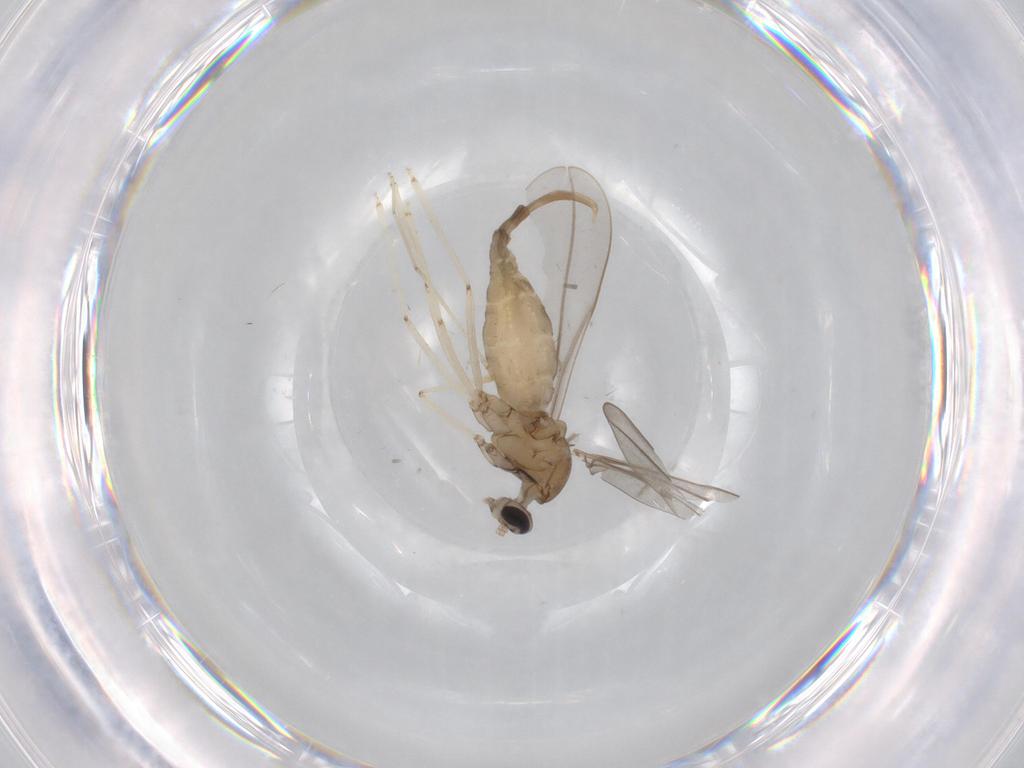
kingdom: Animalia
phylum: Arthropoda
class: Insecta
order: Diptera
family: Cecidomyiidae
